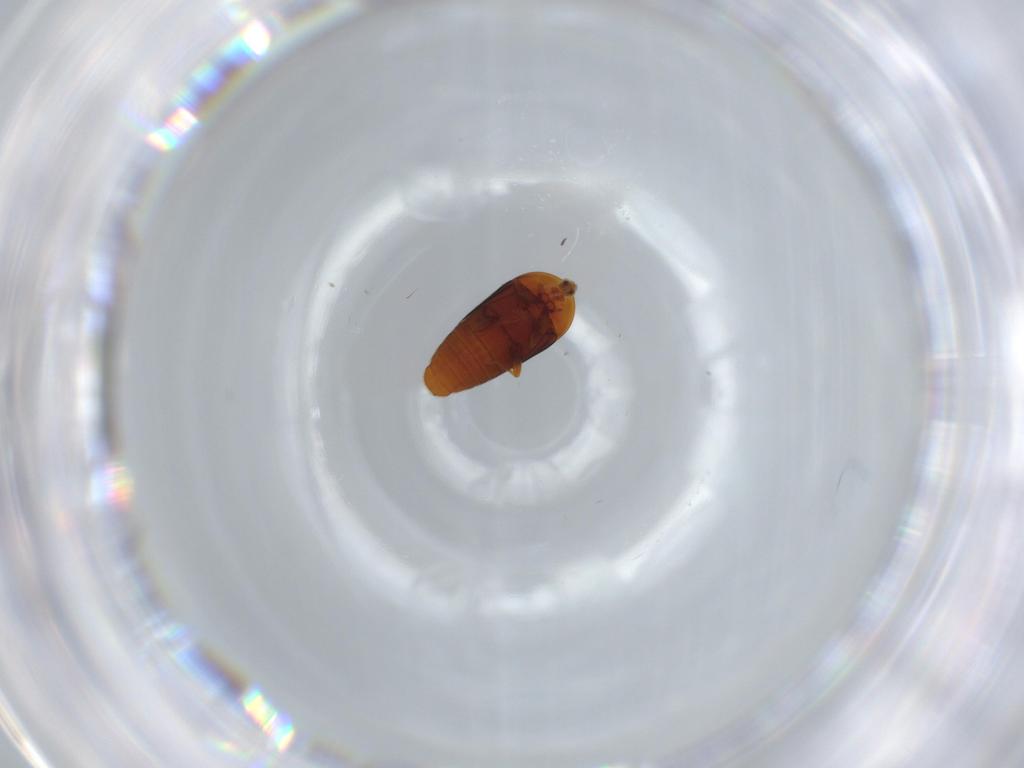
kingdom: Animalia
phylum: Arthropoda
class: Insecta
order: Coleoptera
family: Corylophidae
